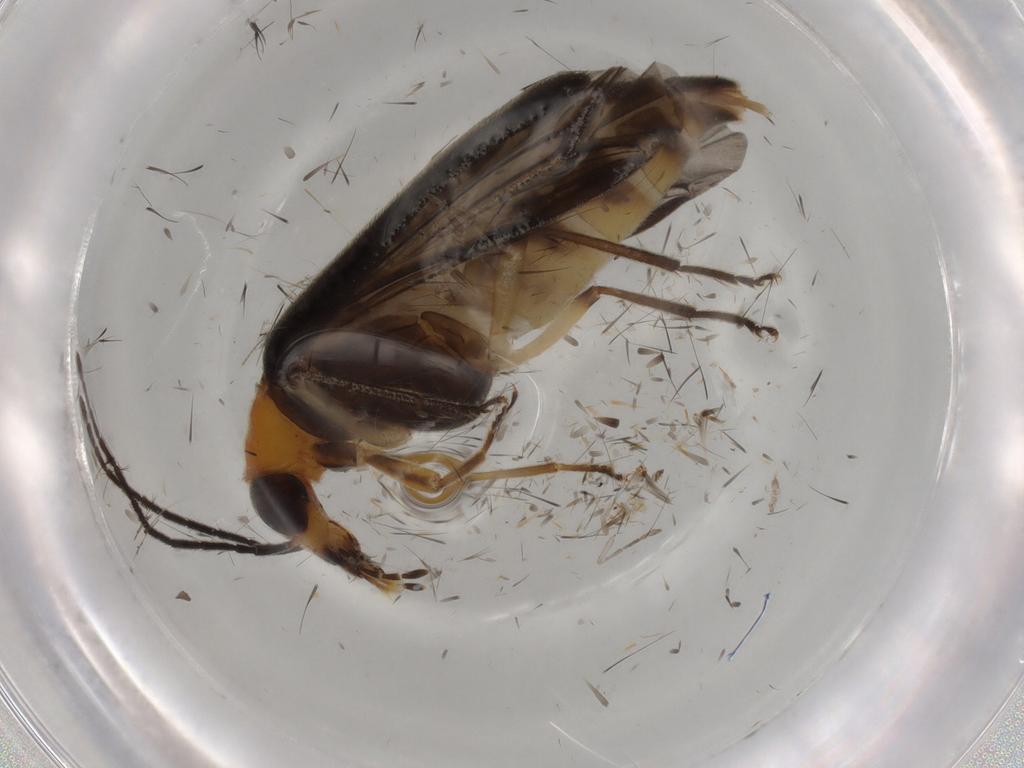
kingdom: Animalia
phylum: Arthropoda
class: Insecta
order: Coleoptera
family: Oedemeridae
